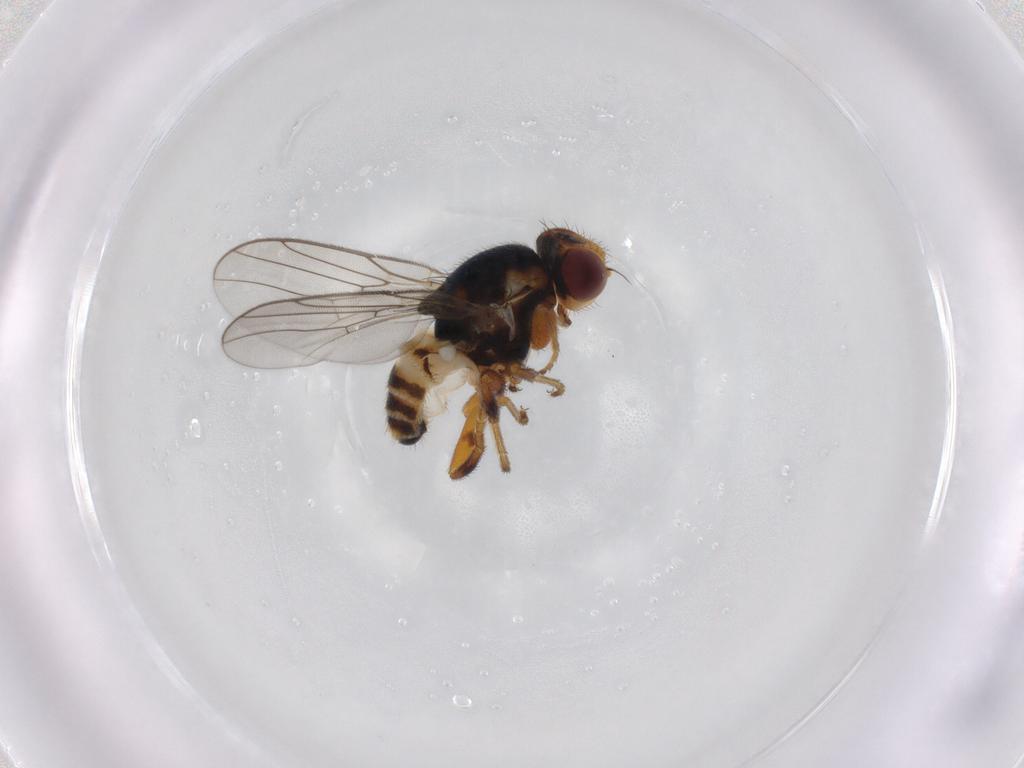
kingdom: Animalia
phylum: Arthropoda
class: Insecta
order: Diptera
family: Chloropidae
